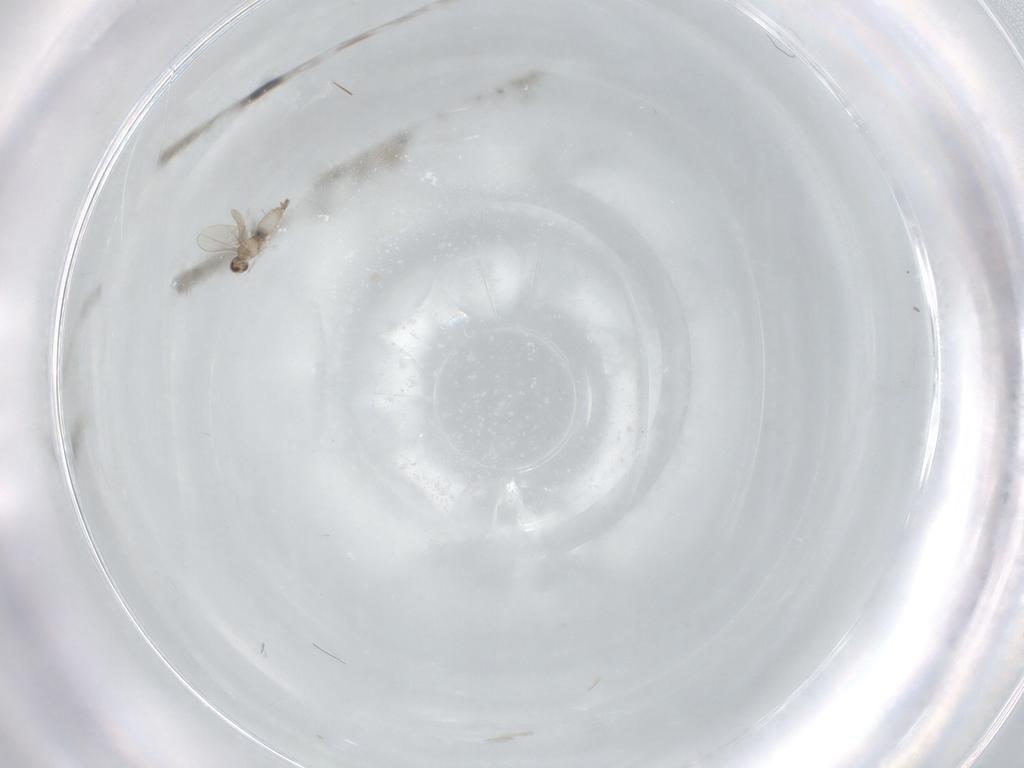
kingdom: Animalia
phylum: Arthropoda
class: Insecta
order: Diptera
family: Cecidomyiidae
